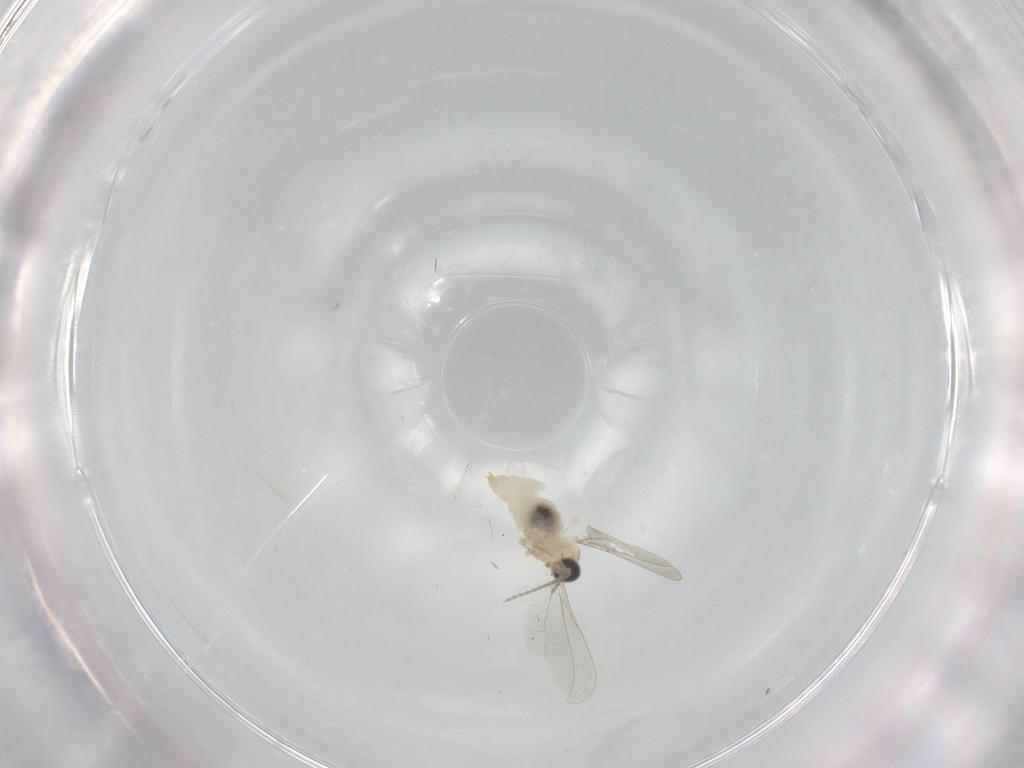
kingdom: Animalia
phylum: Arthropoda
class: Insecta
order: Diptera
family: Cecidomyiidae
